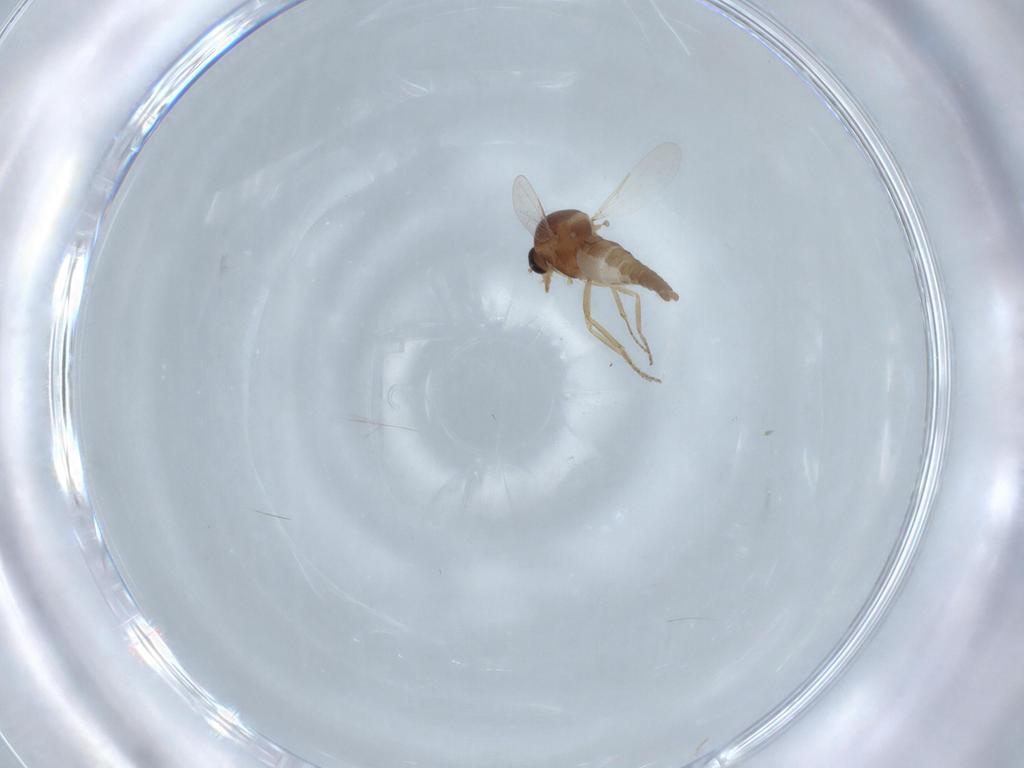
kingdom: Animalia
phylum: Arthropoda
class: Insecta
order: Diptera
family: Ceratopogonidae
